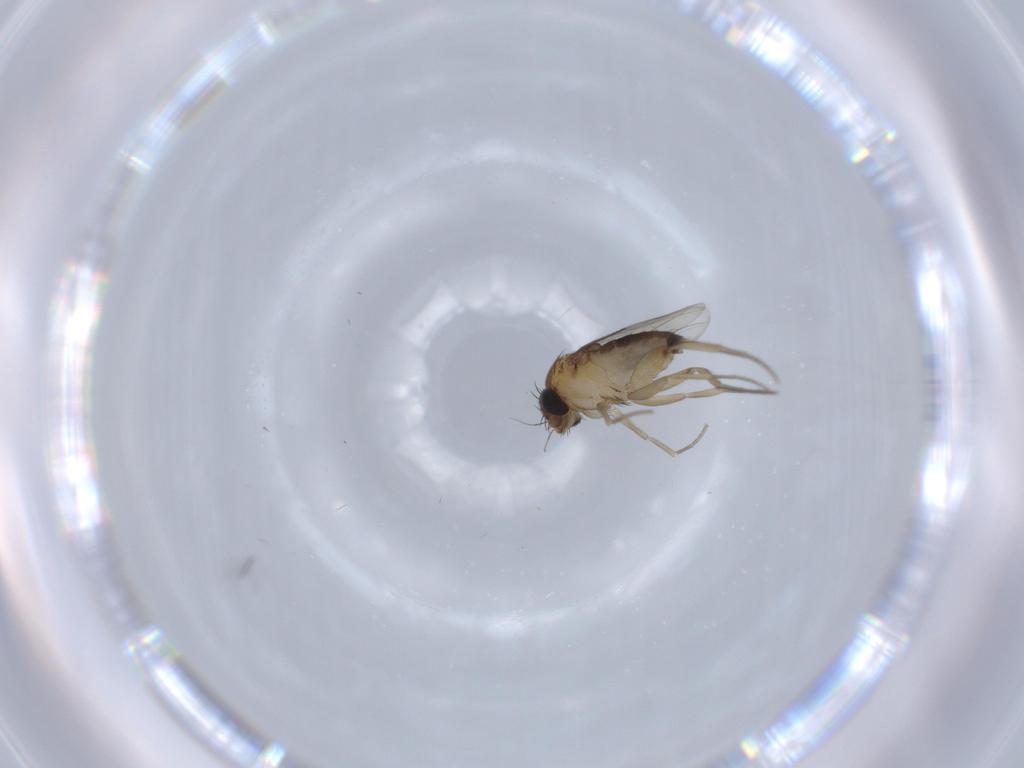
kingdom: Animalia
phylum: Arthropoda
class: Insecta
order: Diptera
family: Phoridae
